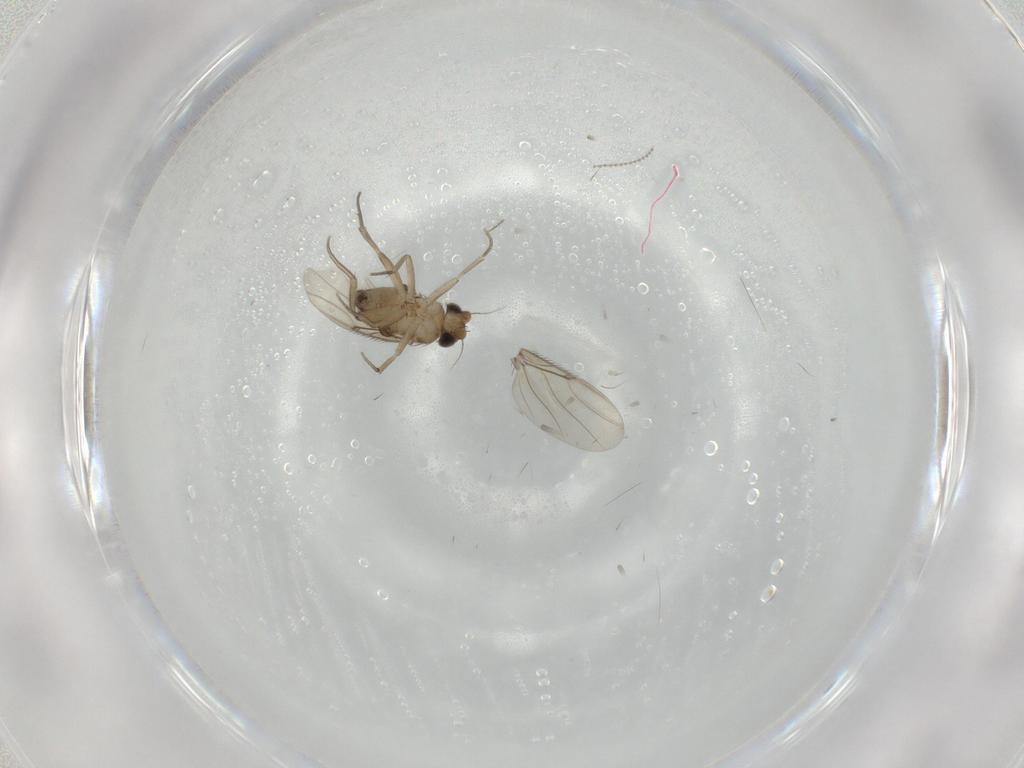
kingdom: Animalia
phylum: Arthropoda
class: Insecta
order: Diptera
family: Phoridae
